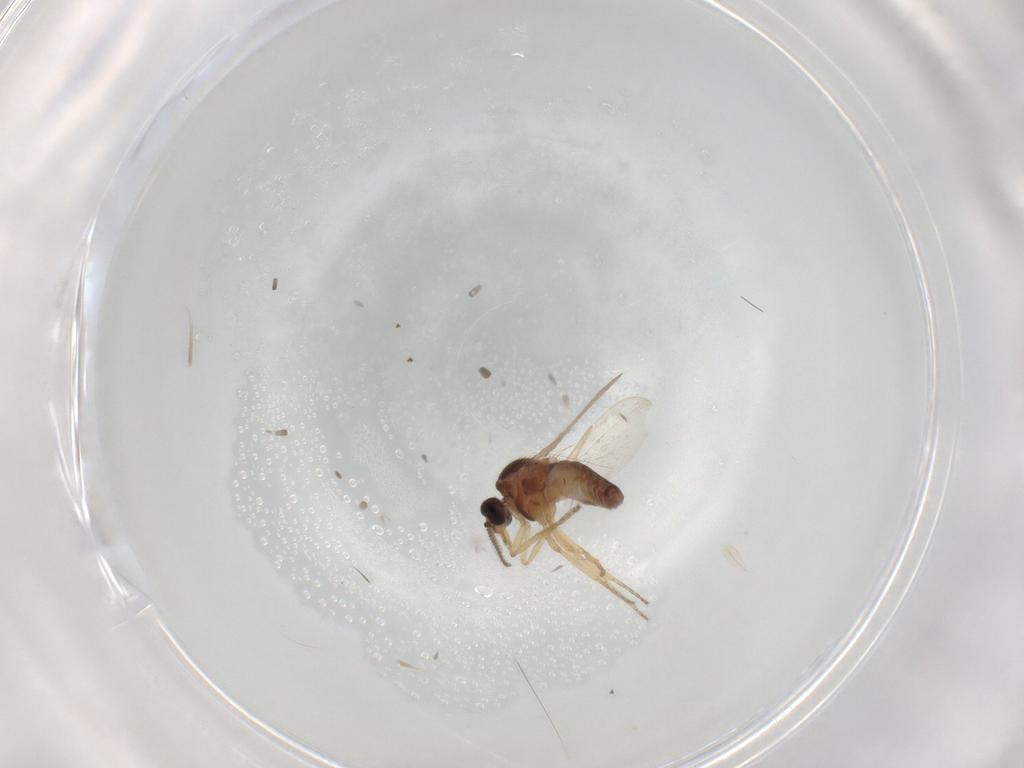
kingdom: Animalia
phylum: Arthropoda
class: Insecta
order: Diptera
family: Ceratopogonidae
